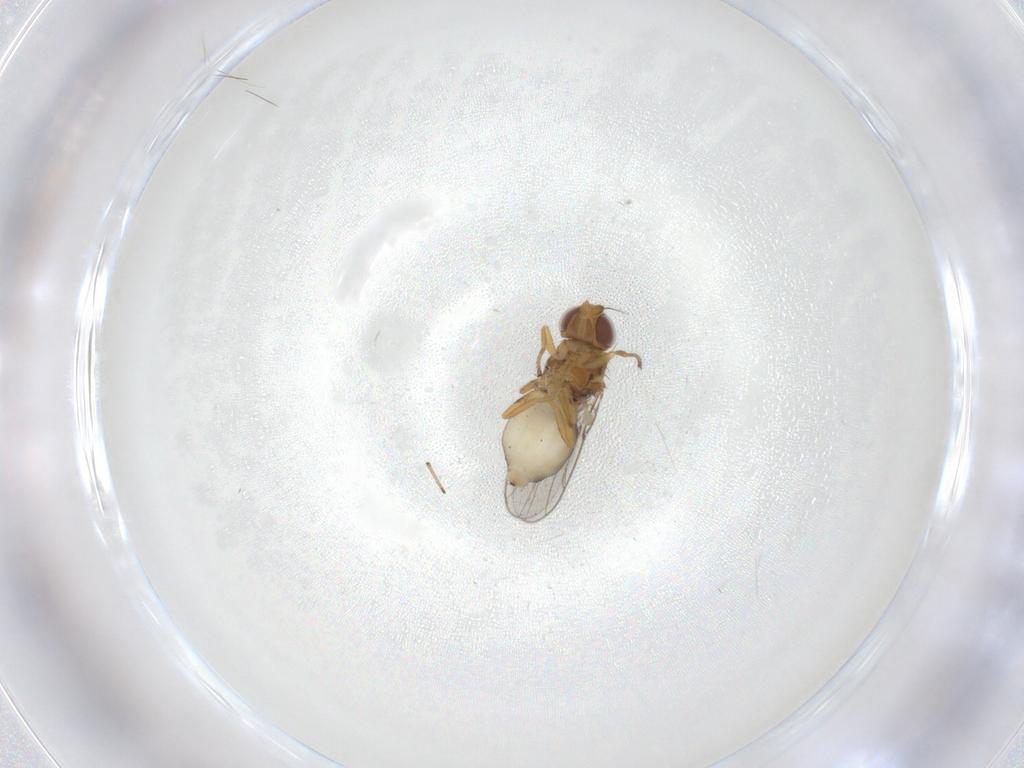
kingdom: Animalia
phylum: Arthropoda
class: Insecta
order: Diptera
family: Chloropidae
